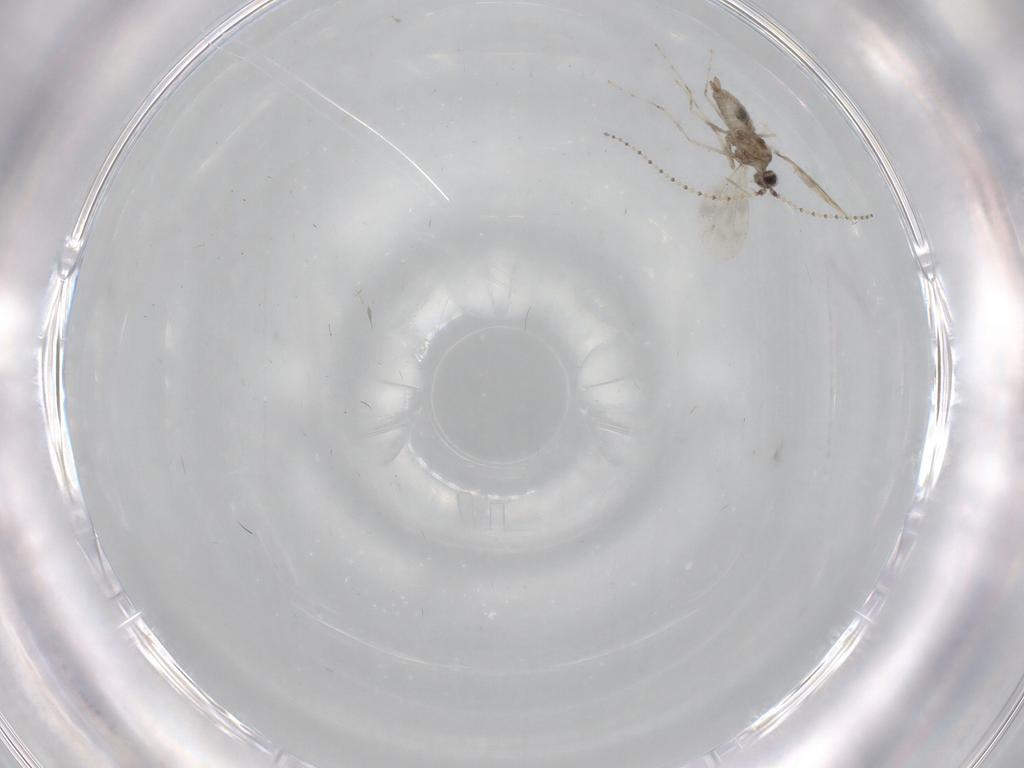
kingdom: Animalia
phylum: Arthropoda
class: Insecta
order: Diptera
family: Cecidomyiidae
